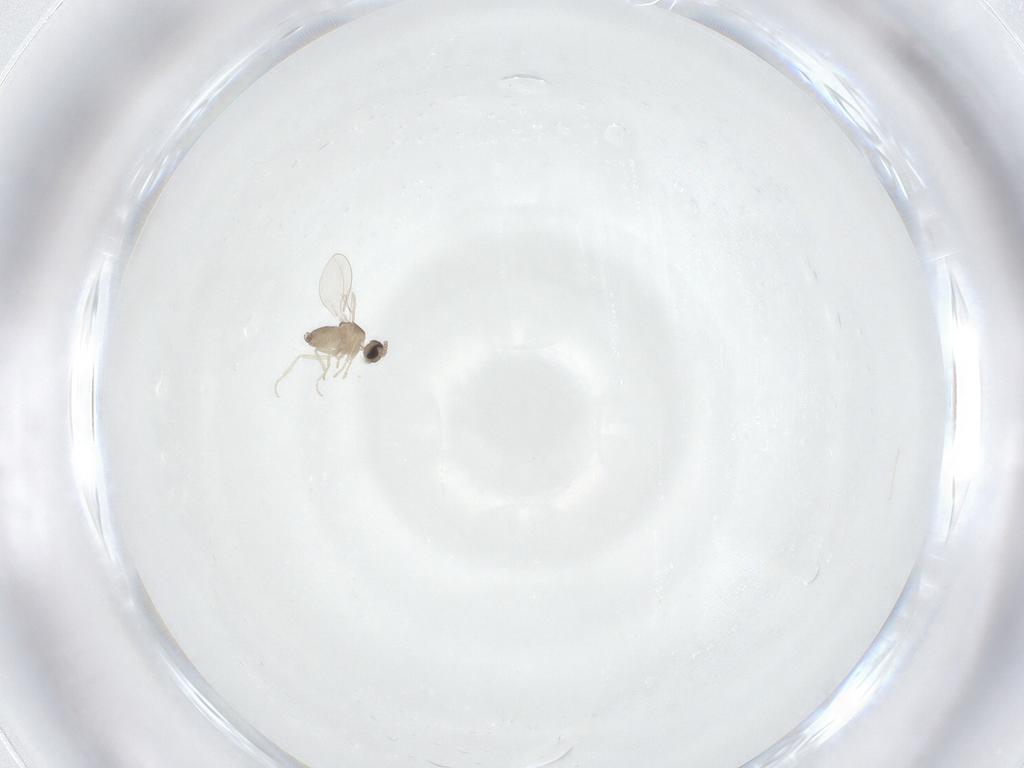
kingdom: Animalia
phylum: Arthropoda
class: Insecta
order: Diptera
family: Cecidomyiidae
